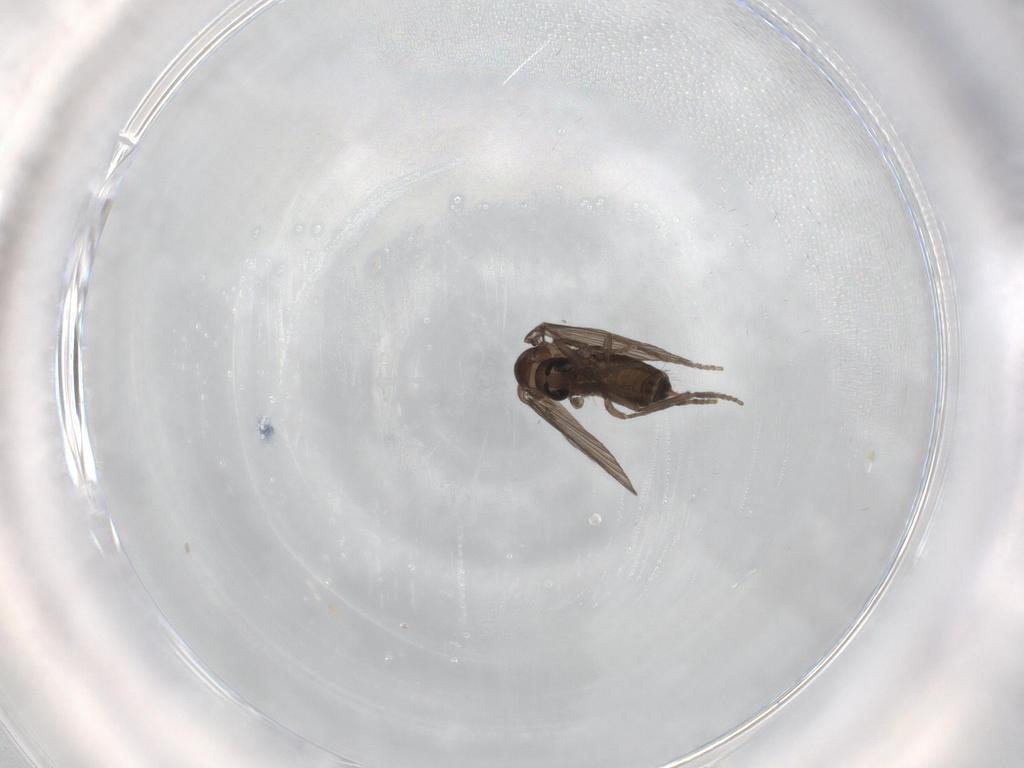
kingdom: Animalia
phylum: Arthropoda
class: Insecta
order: Diptera
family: Psychodidae
